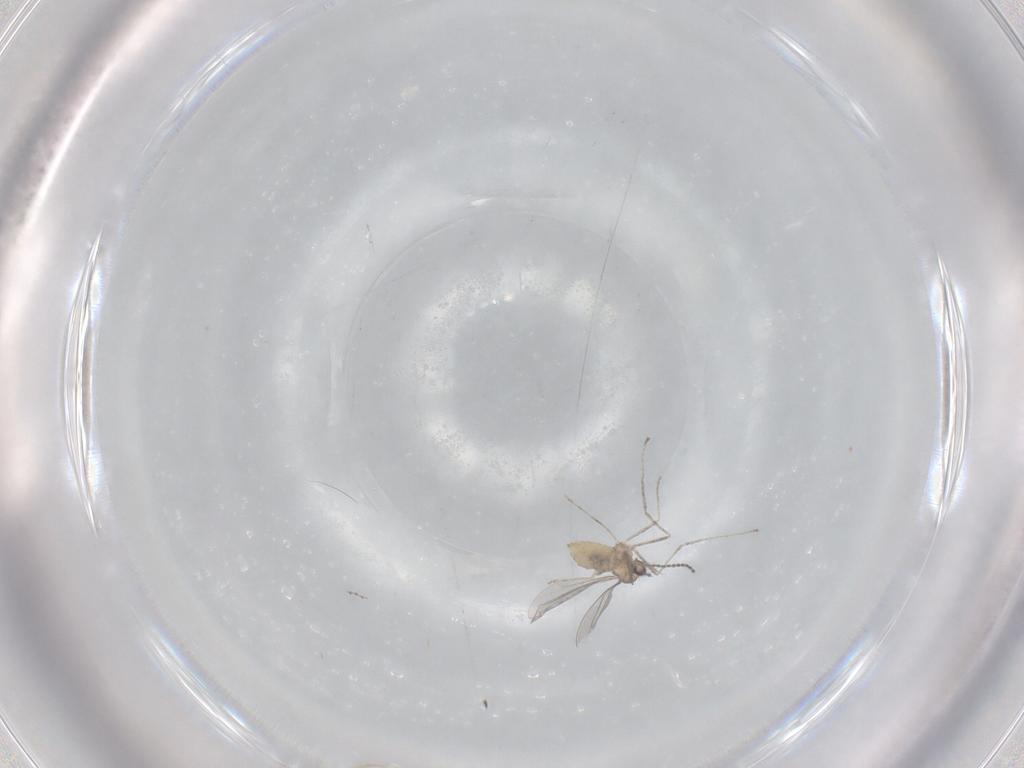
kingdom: Animalia
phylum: Arthropoda
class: Insecta
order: Diptera
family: Cecidomyiidae
